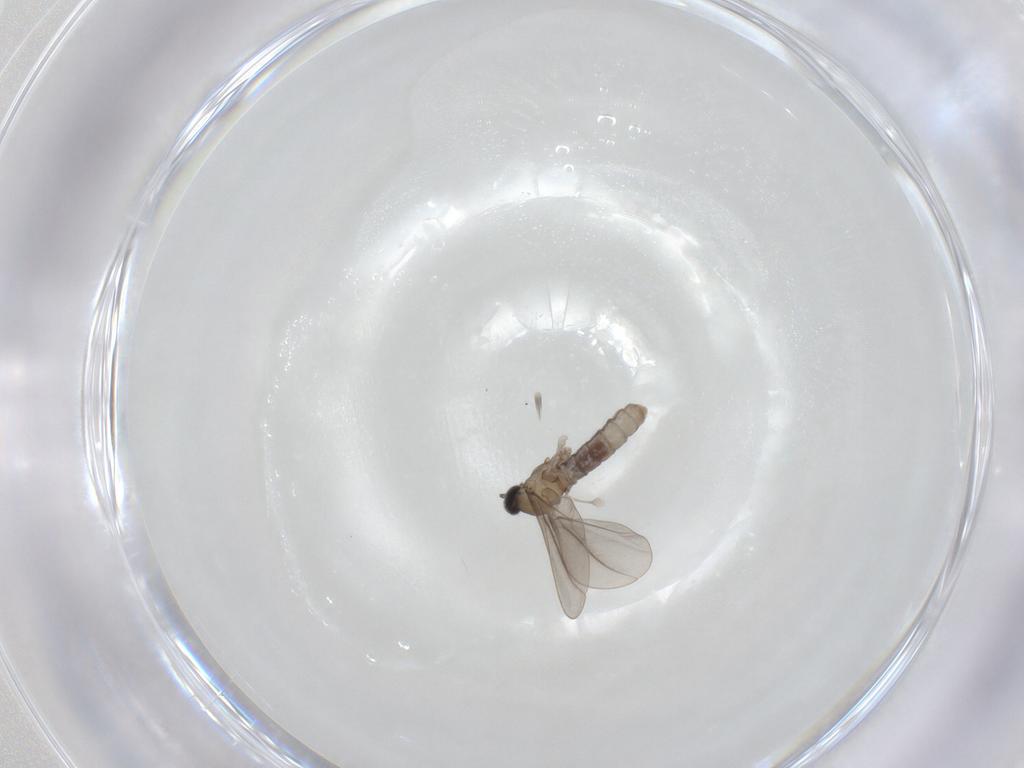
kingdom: Animalia
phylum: Arthropoda
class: Insecta
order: Diptera
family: Cecidomyiidae
